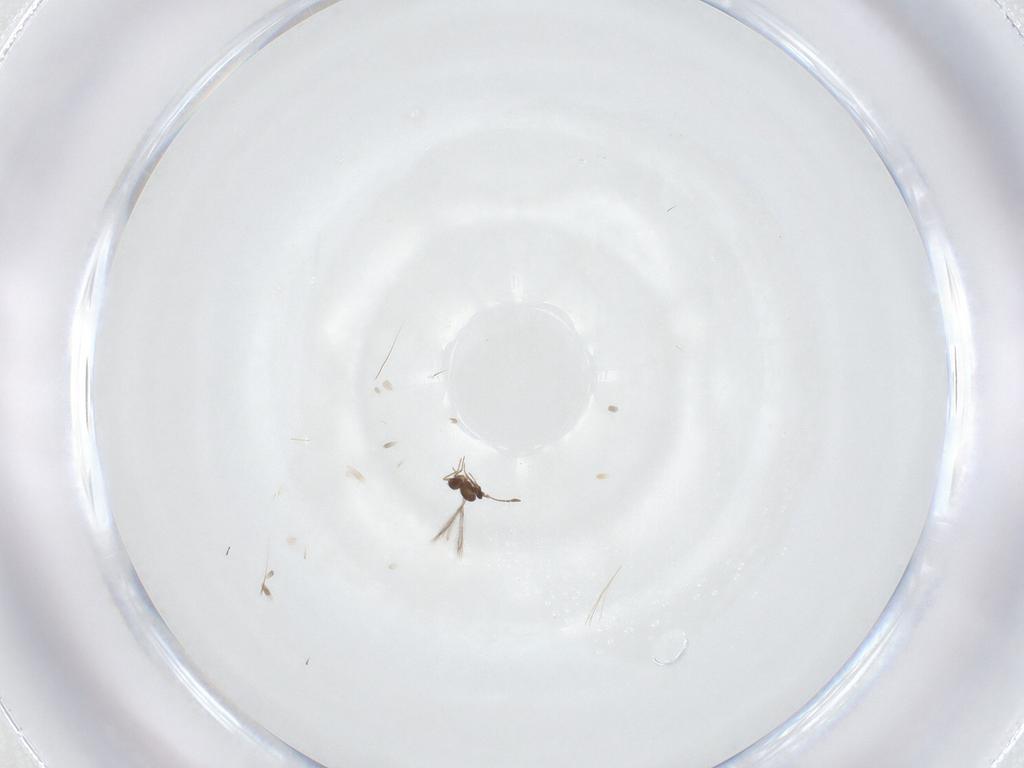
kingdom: Animalia
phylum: Arthropoda
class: Insecta
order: Hymenoptera
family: Mymaridae
